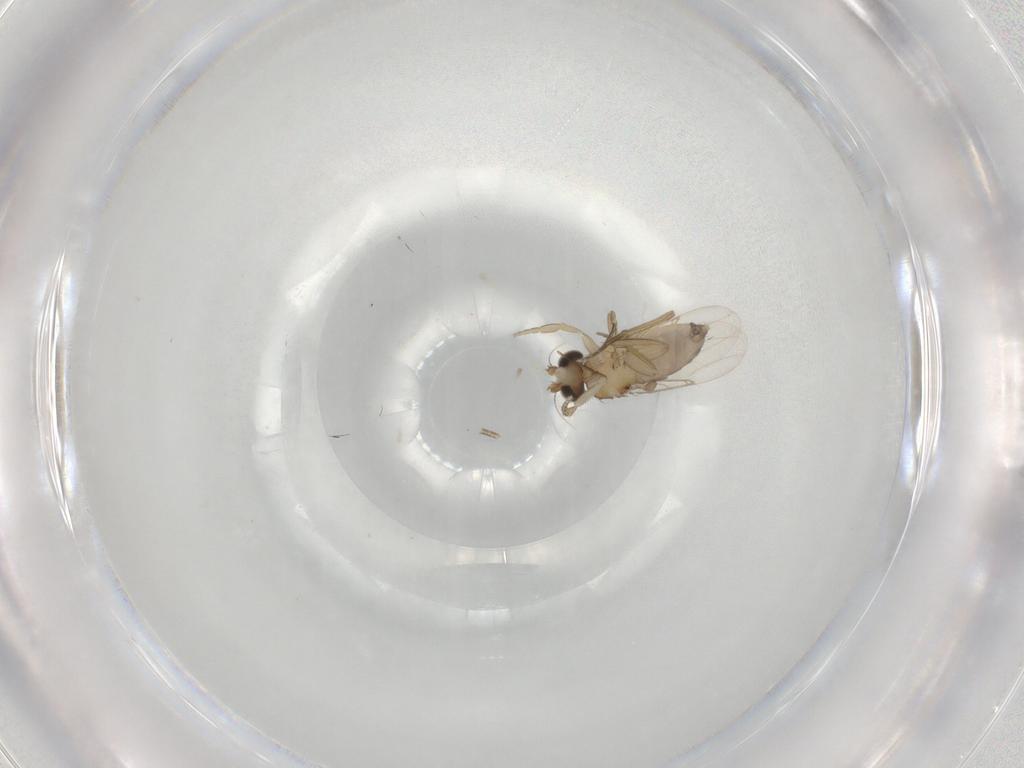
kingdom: Animalia
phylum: Arthropoda
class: Insecta
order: Diptera
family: Phoridae
